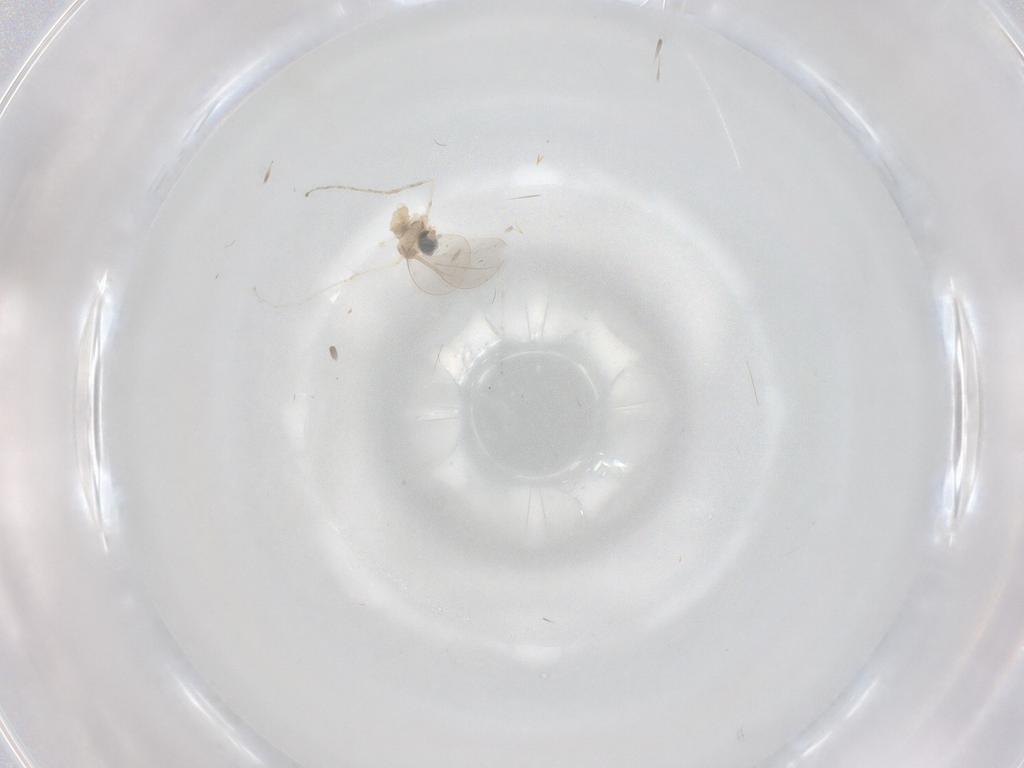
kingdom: Animalia
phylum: Arthropoda
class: Insecta
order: Diptera
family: Cecidomyiidae
